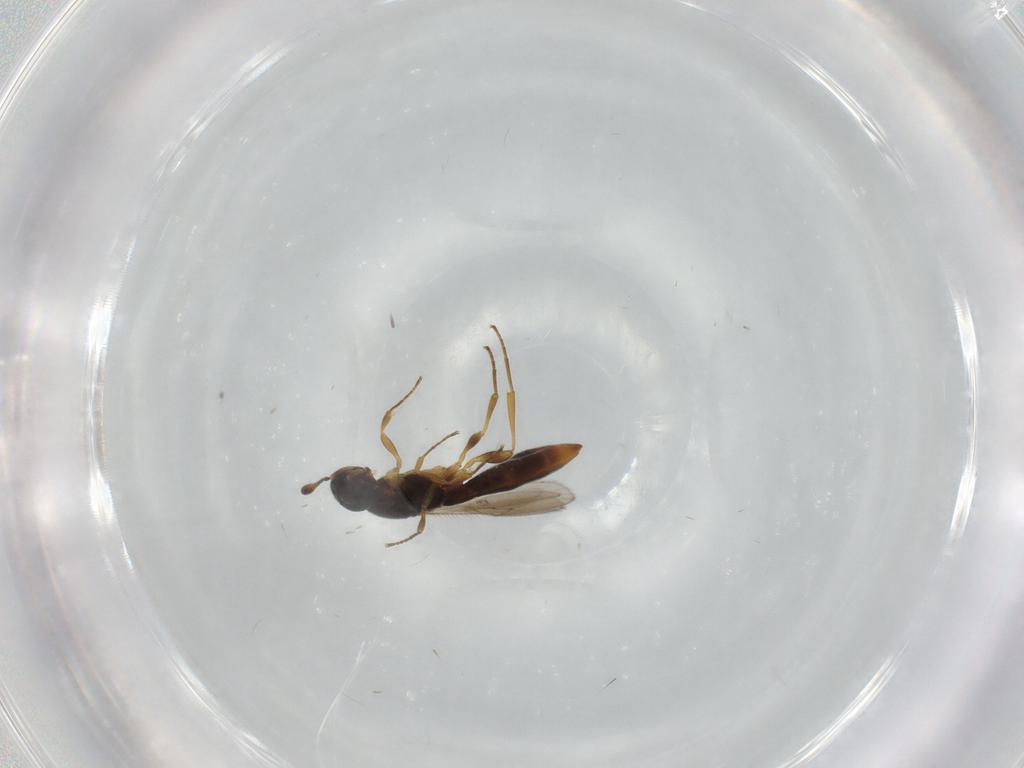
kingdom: Animalia
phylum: Arthropoda
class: Insecta
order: Hymenoptera
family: Scelionidae
